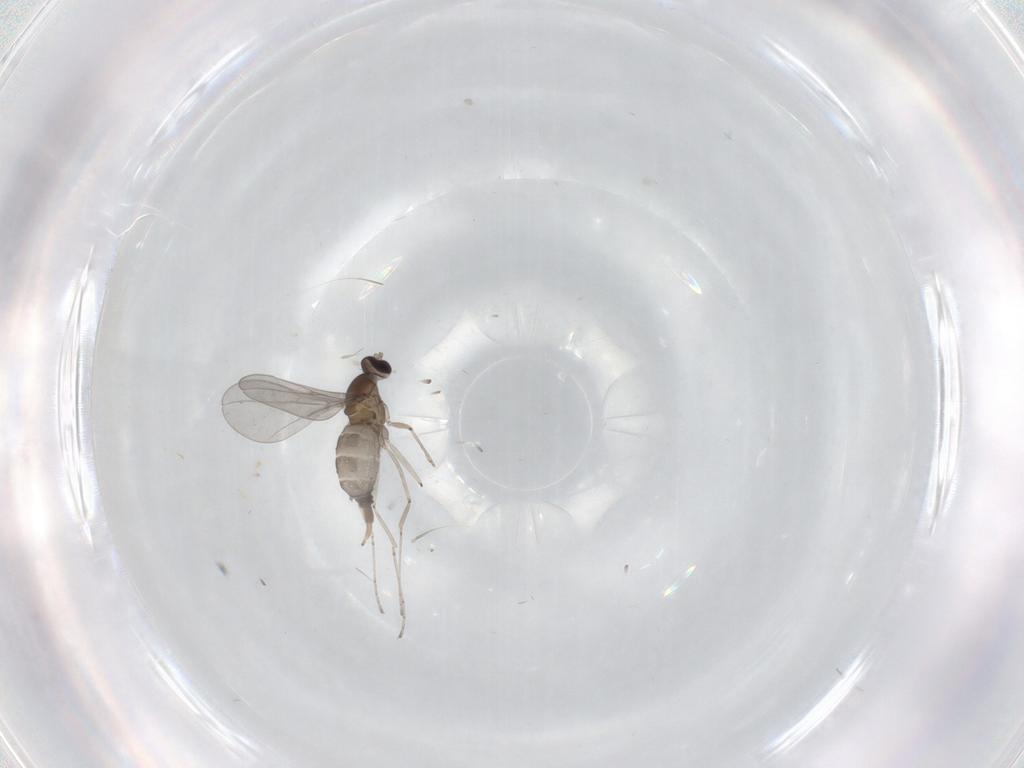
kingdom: Animalia
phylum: Arthropoda
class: Insecta
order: Diptera
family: Cecidomyiidae
